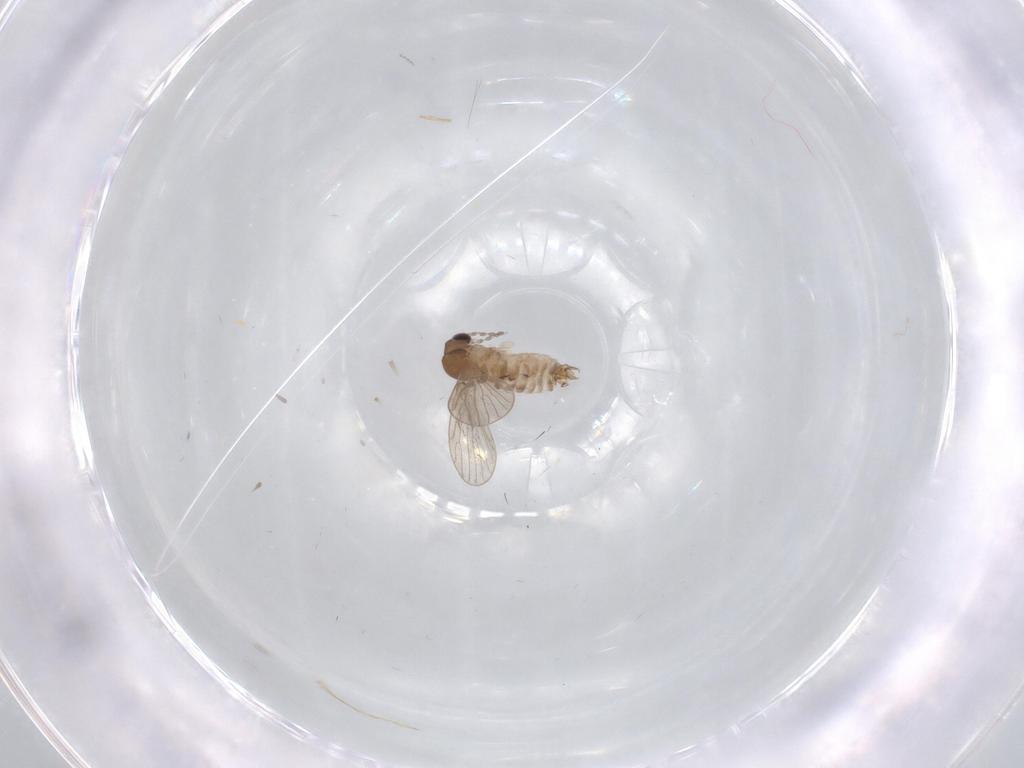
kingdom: Animalia
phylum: Arthropoda
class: Insecta
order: Diptera
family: Psychodidae
